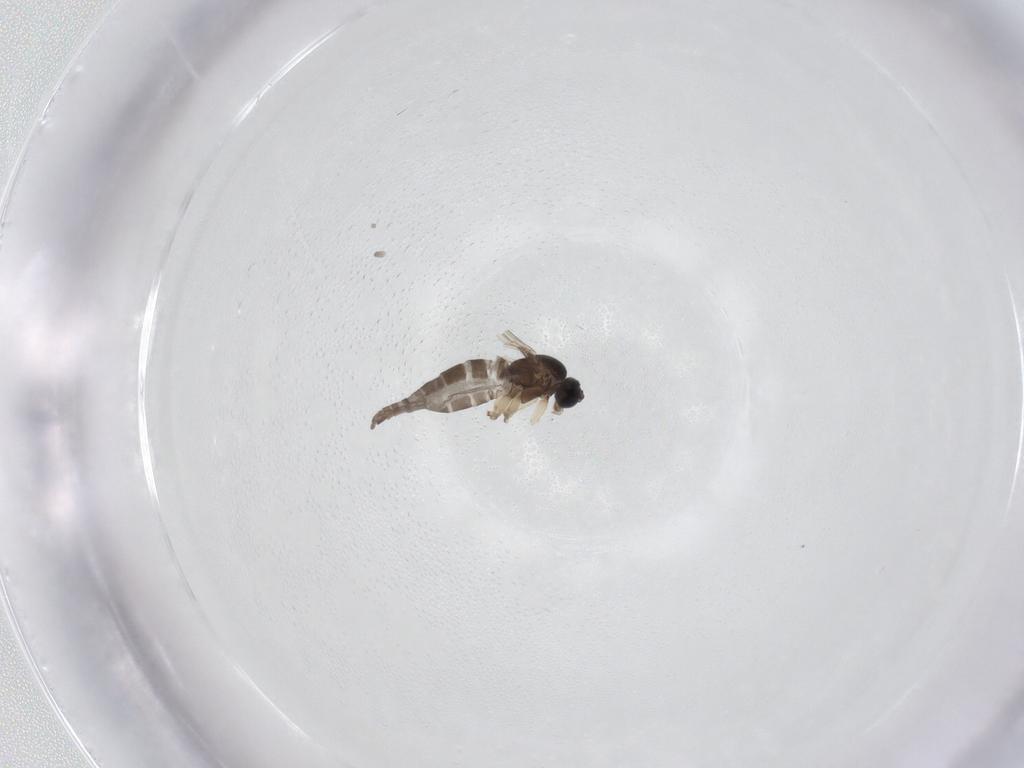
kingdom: Animalia
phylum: Arthropoda
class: Insecta
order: Diptera
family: Sciaridae
